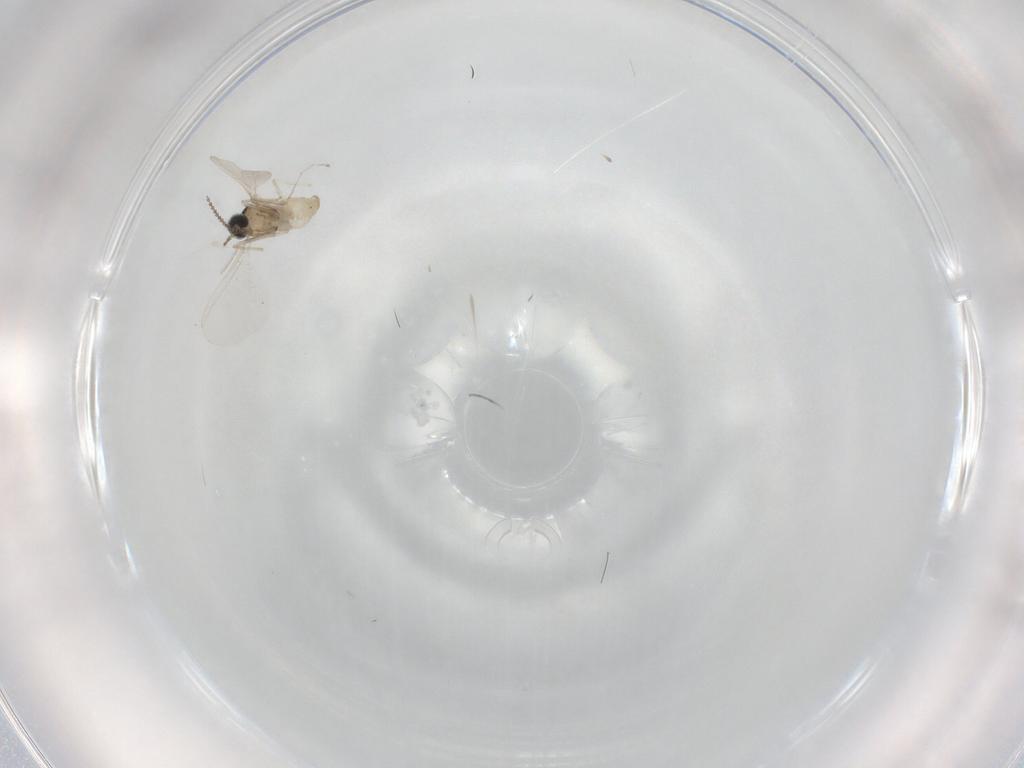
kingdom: Animalia
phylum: Arthropoda
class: Insecta
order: Diptera
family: Cecidomyiidae
